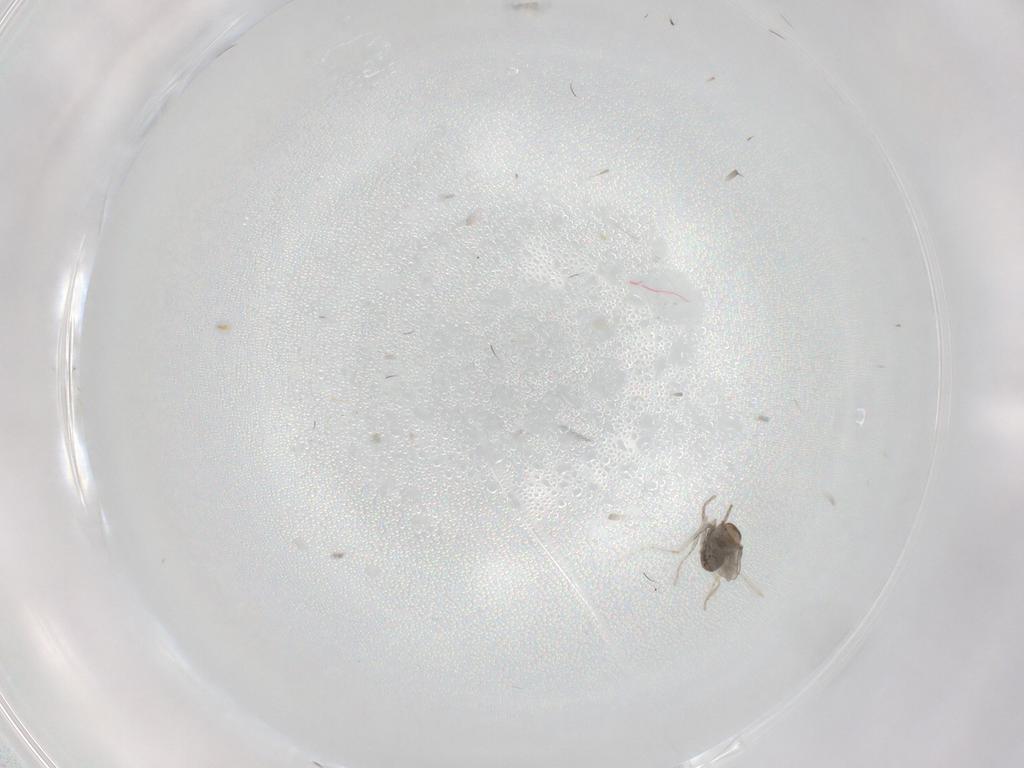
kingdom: Animalia
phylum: Arthropoda
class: Insecta
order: Diptera
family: Cecidomyiidae
